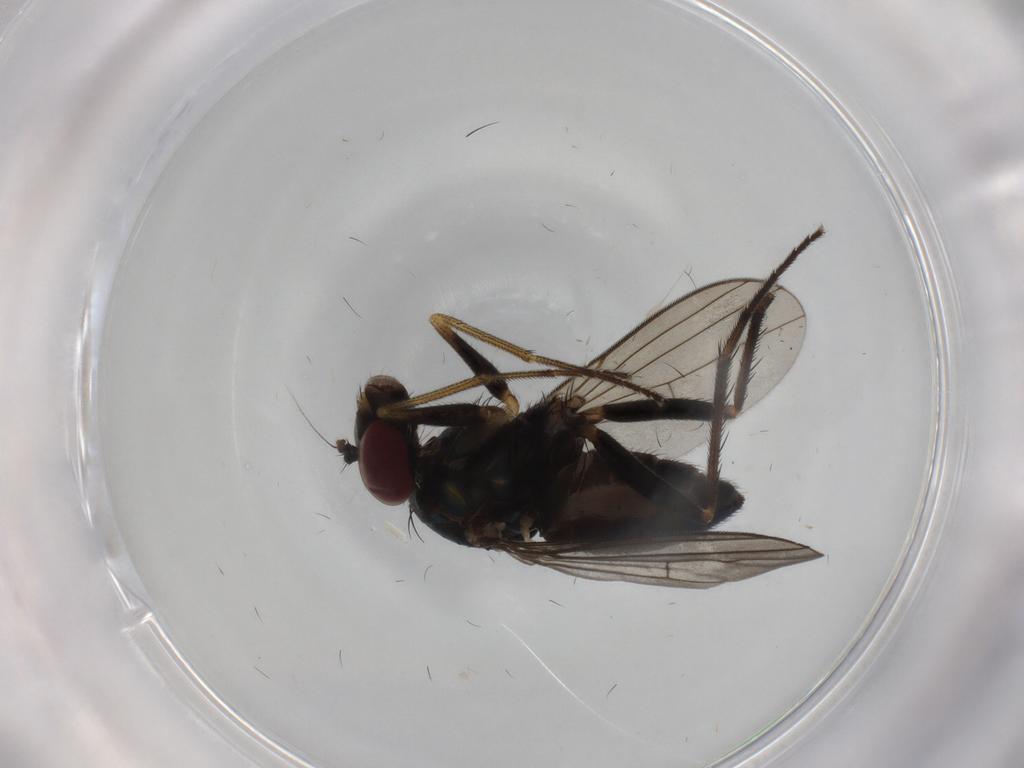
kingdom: Animalia
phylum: Arthropoda
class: Insecta
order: Diptera
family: Dolichopodidae
